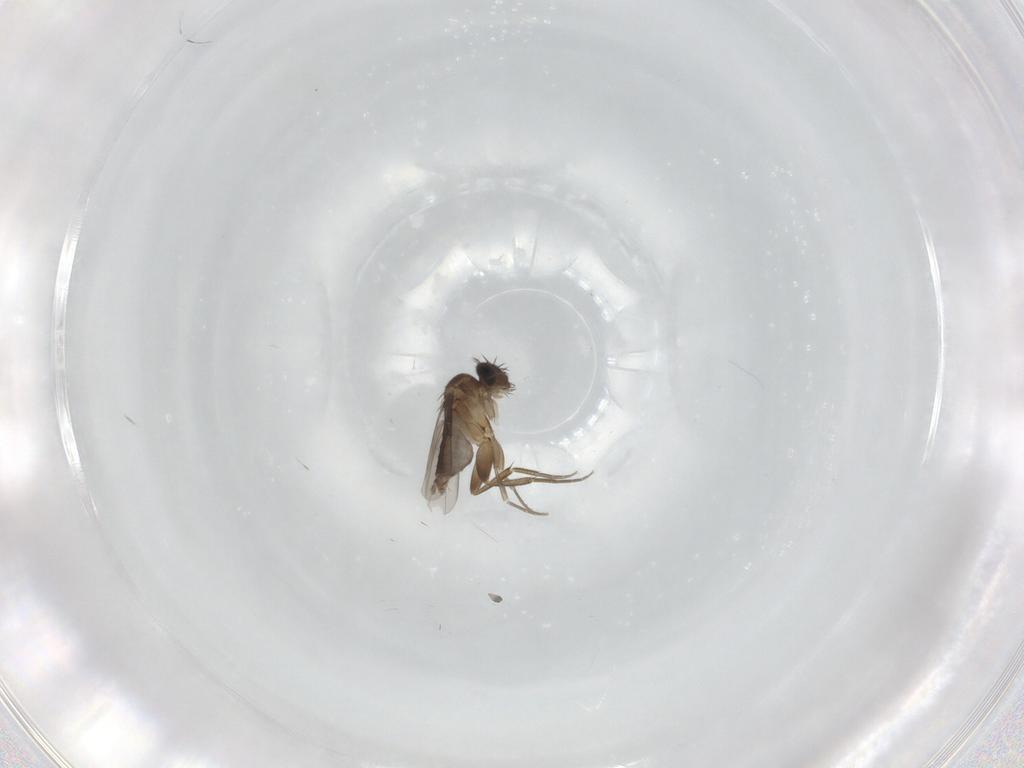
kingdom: Animalia
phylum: Arthropoda
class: Insecta
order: Diptera
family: Phoridae
